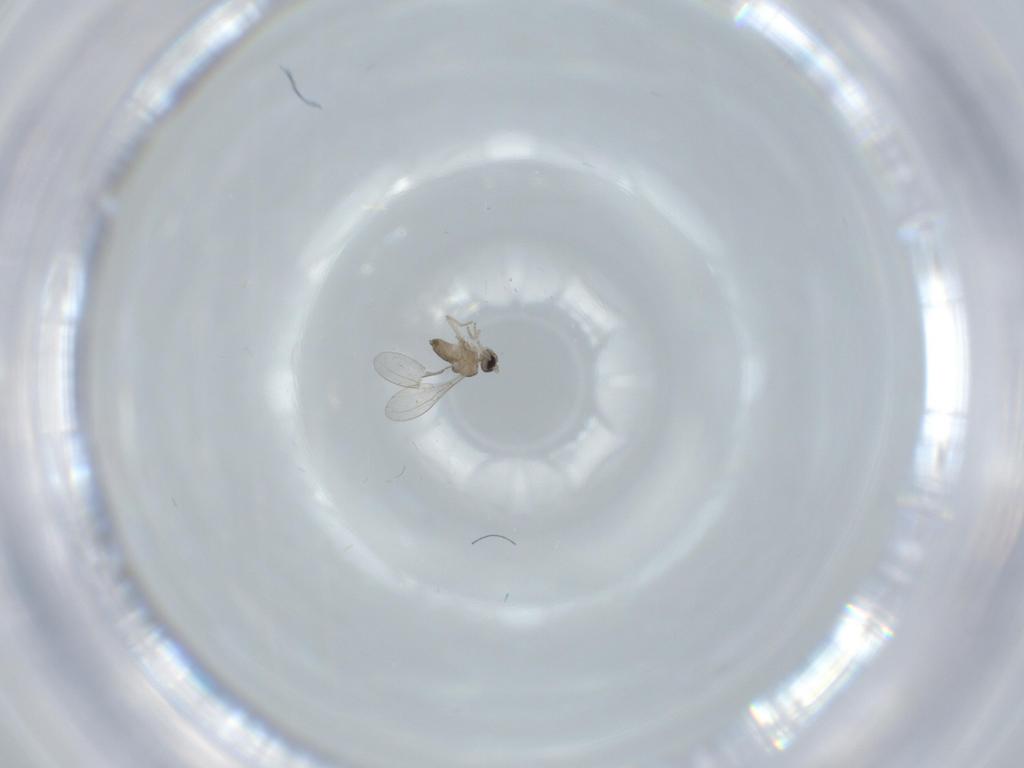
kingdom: Animalia
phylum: Arthropoda
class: Insecta
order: Diptera
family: Cecidomyiidae
